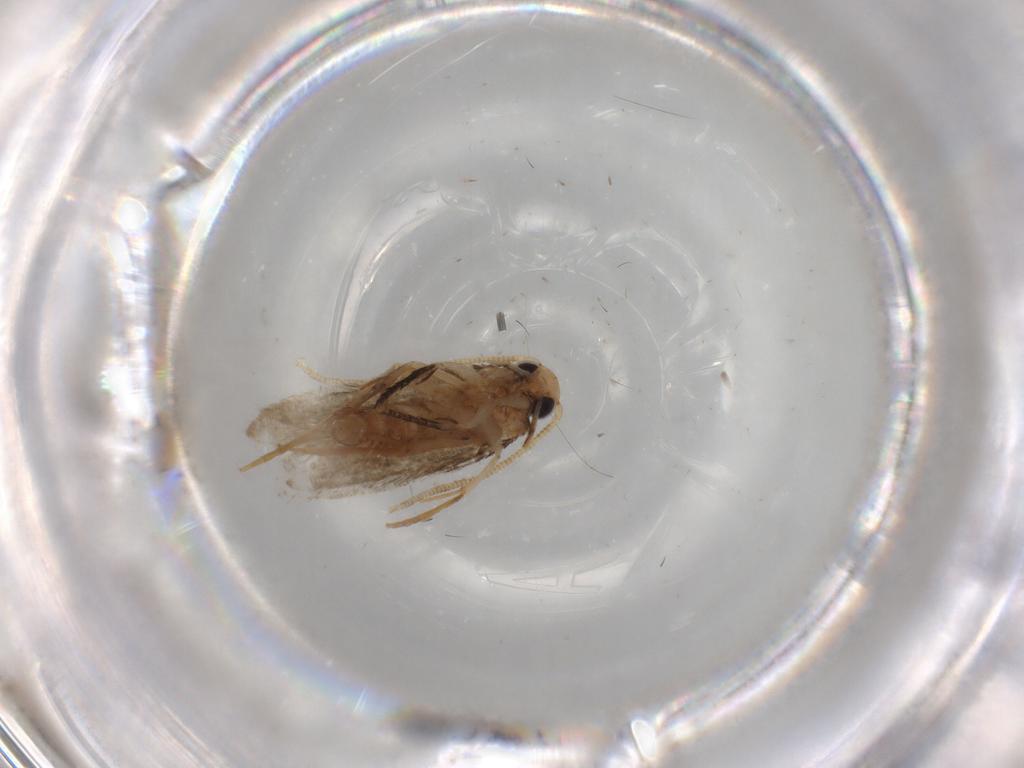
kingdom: Animalia
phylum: Arthropoda
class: Insecta
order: Lepidoptera
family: Cosmopterigidae
